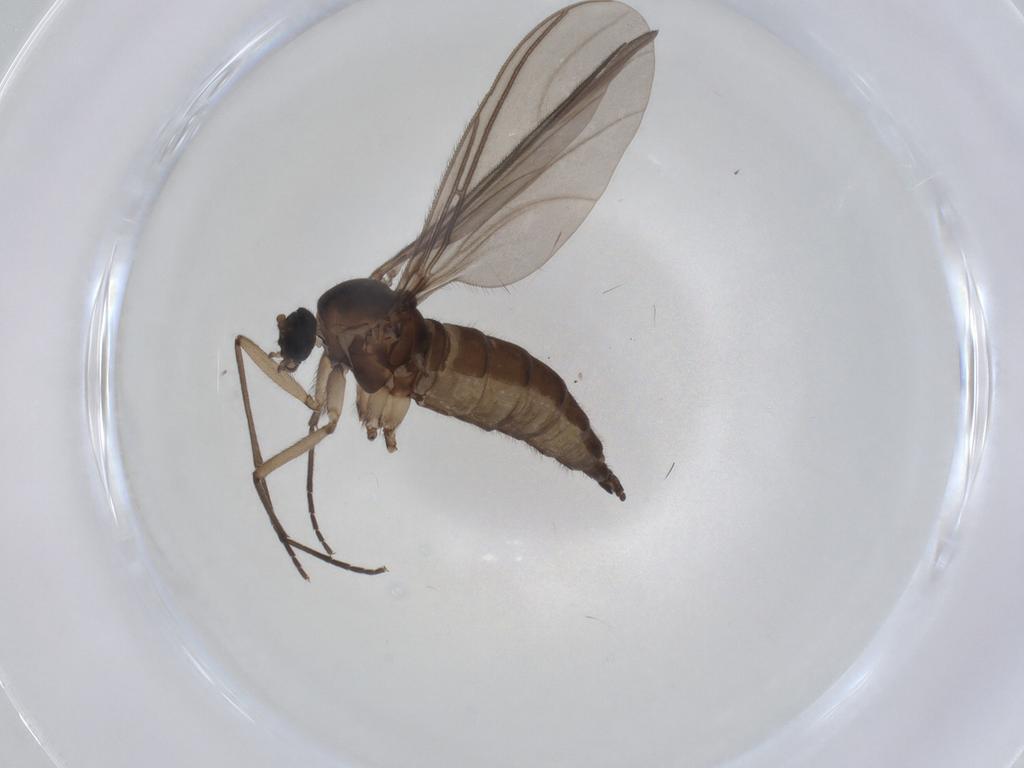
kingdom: Animalia
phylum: Arthropoda
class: Insecta
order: Diptera
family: Sciaridae
